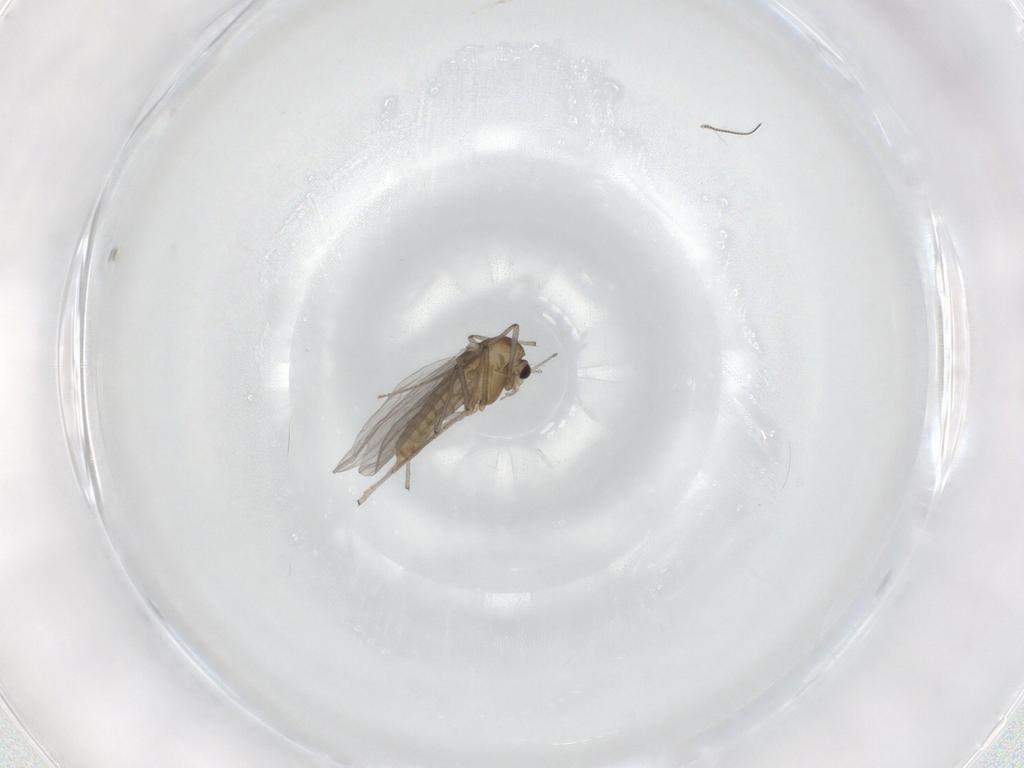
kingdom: Animalia
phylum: Arthropoda
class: Insecta
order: Diptera
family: Chironomidae
